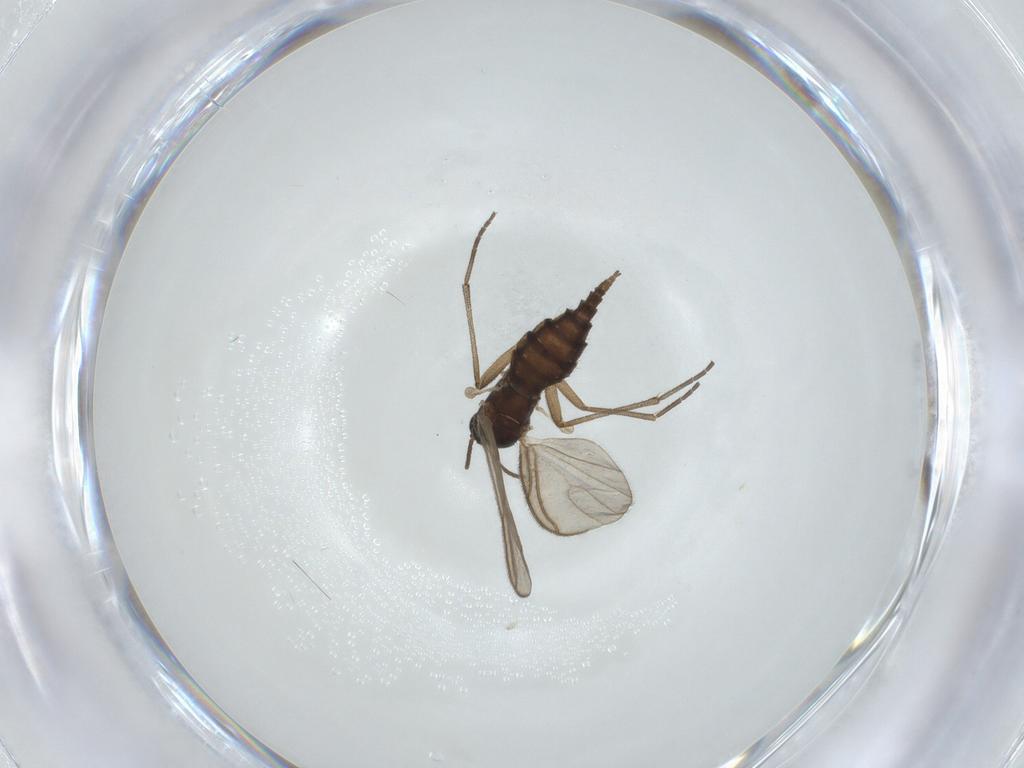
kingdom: Animalia
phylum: Arthropoda
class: Insecta
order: Diptera
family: Sciaridae
